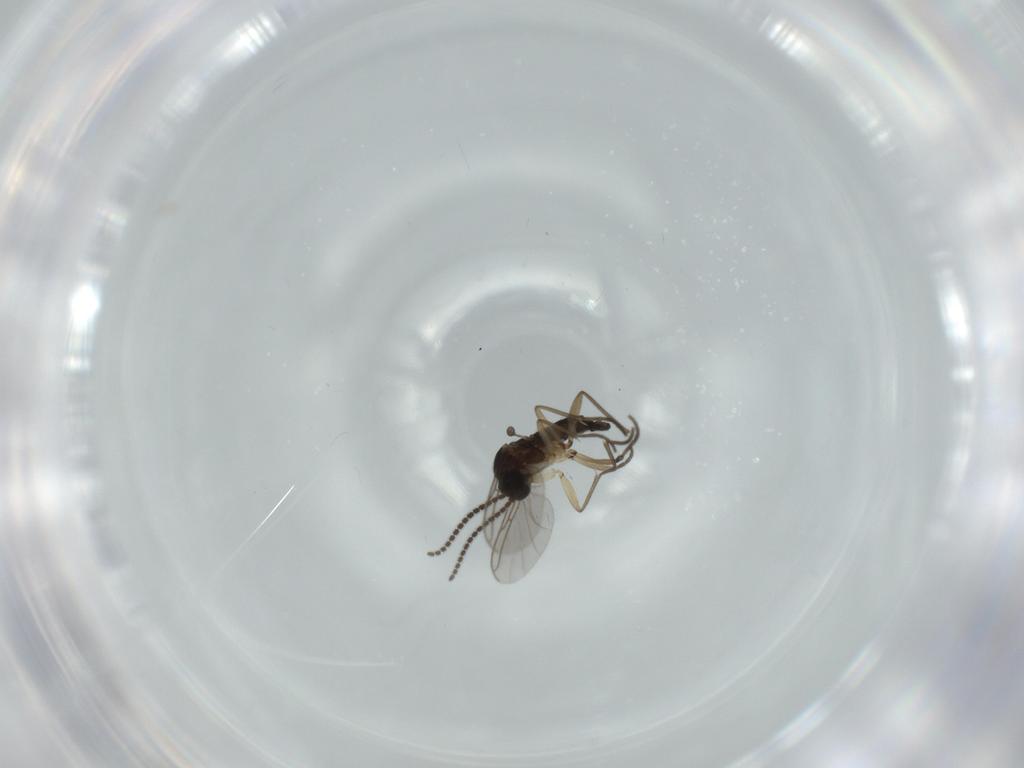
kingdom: Animalia
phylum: Arthropoda
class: Insecta
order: Diptera
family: Sciaridae
